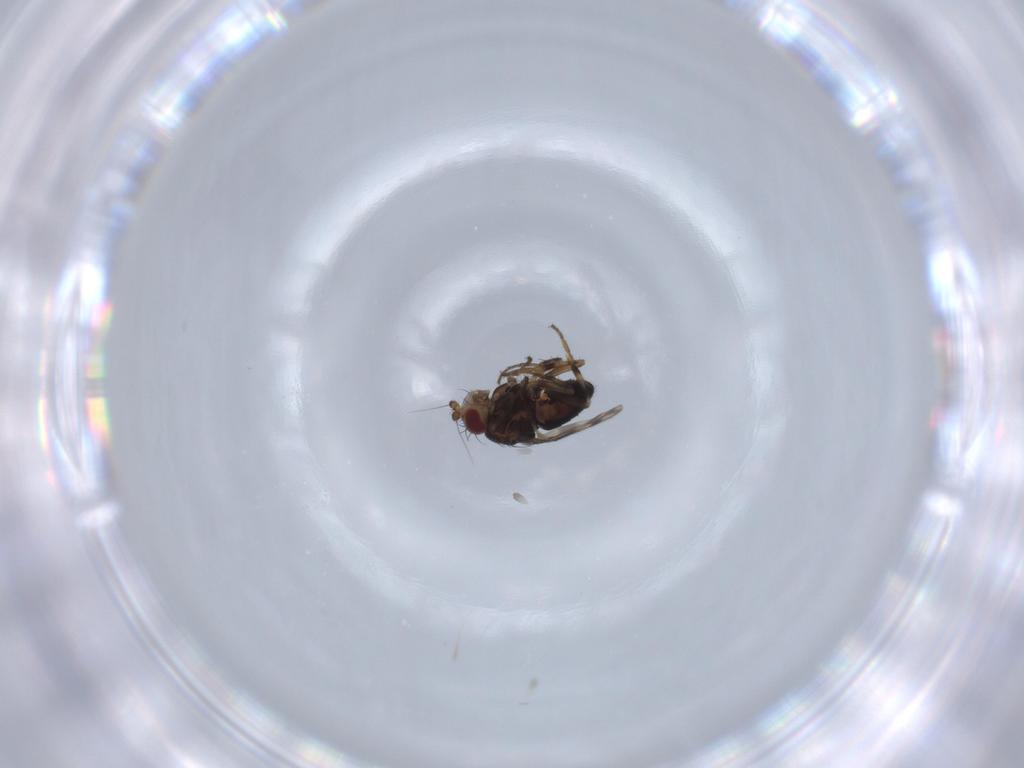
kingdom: Animalia
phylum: Arthropoda
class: Insecta
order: Diptera
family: Sphaeroceridae
